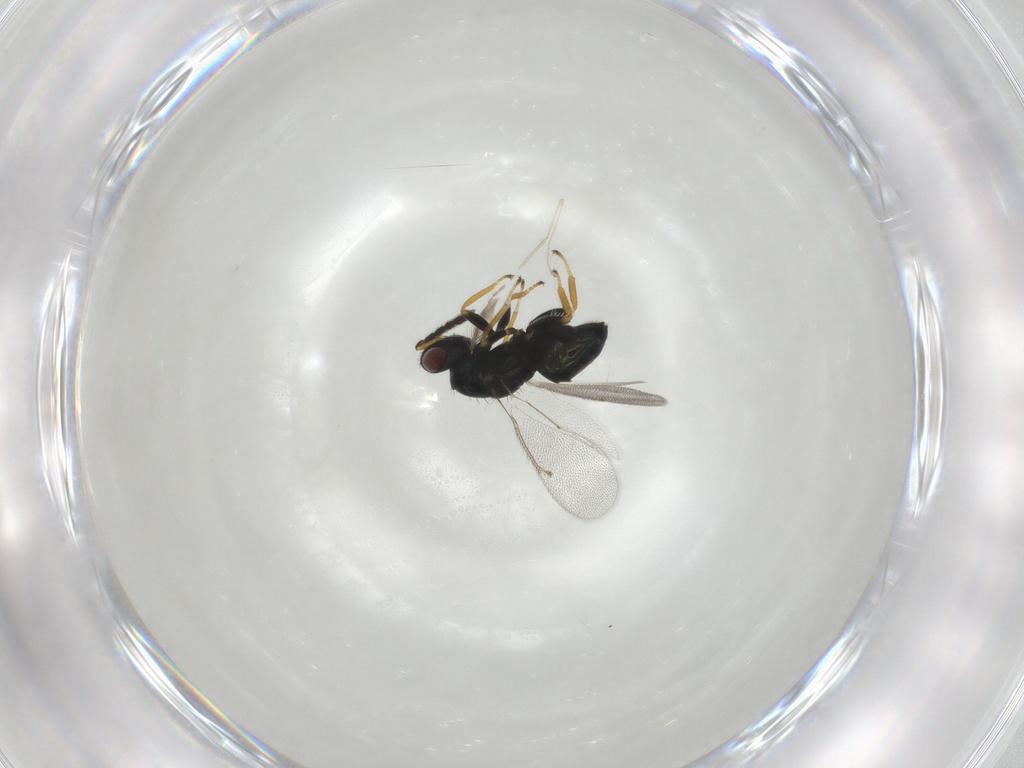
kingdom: Animalia
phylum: Arthropoda
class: Insecta
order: Hymenoptera
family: Eulophidae
